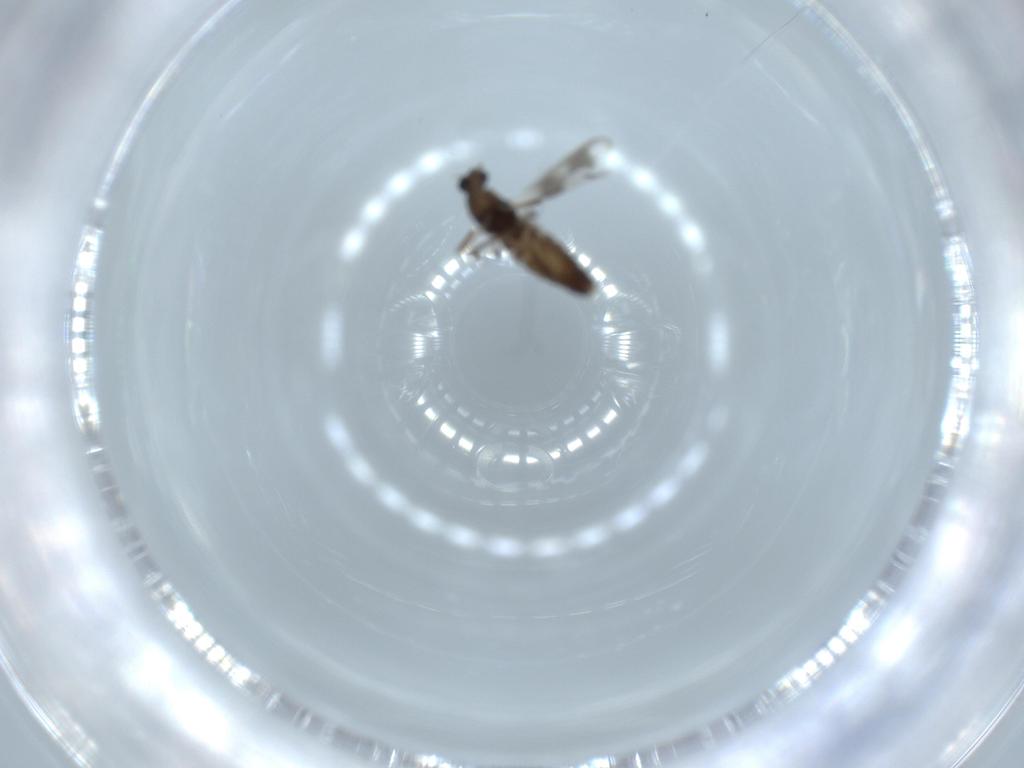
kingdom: Animalia
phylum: Arthropoda
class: Insecta
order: Diptera
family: Chironomidae
